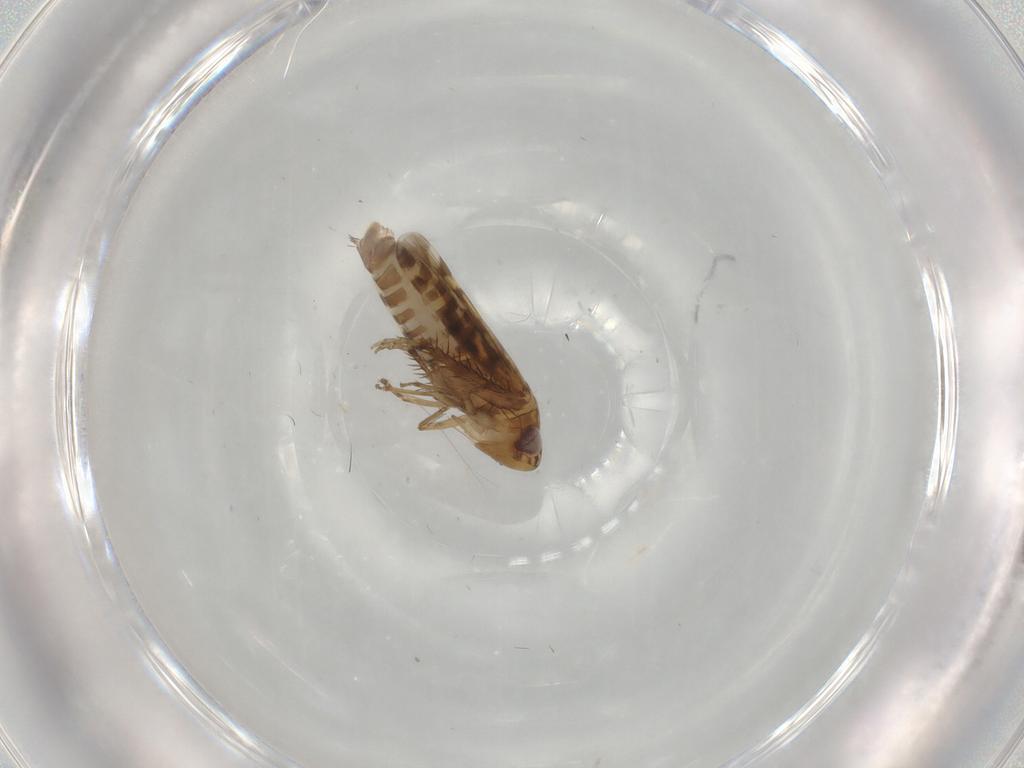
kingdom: Animalia
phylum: Arthropoda
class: Insecta
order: Hemiptera
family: Cicadellidae
